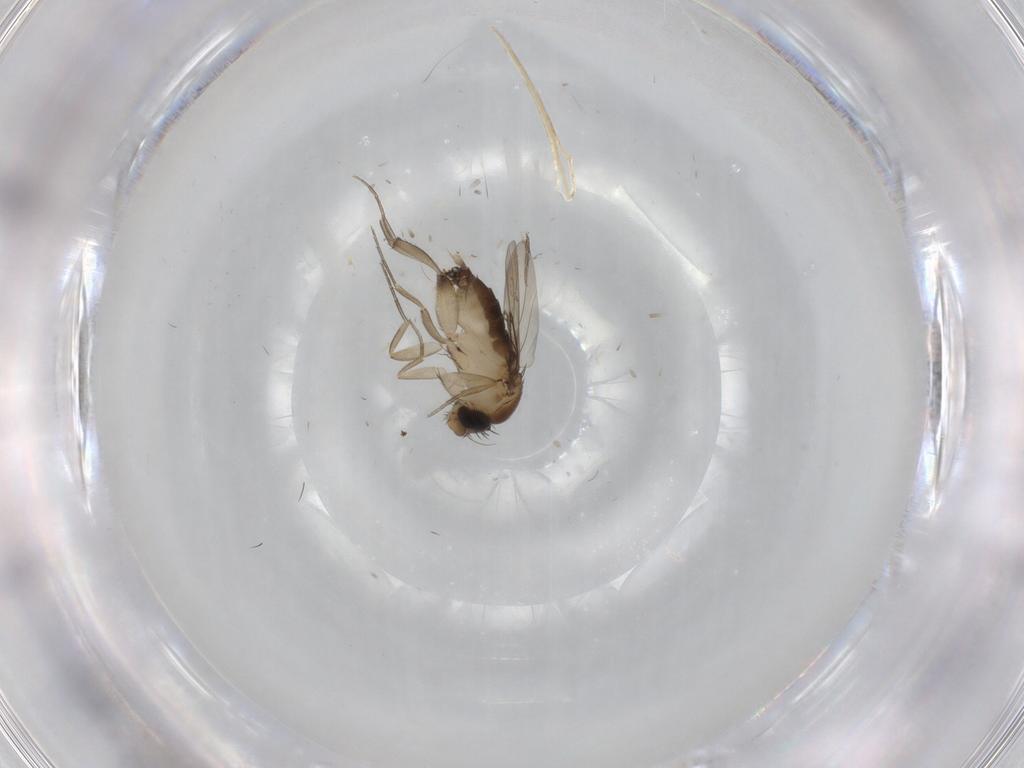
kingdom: Animalia
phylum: Arthropoda
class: Insecta
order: Diptera
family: Phoridae
